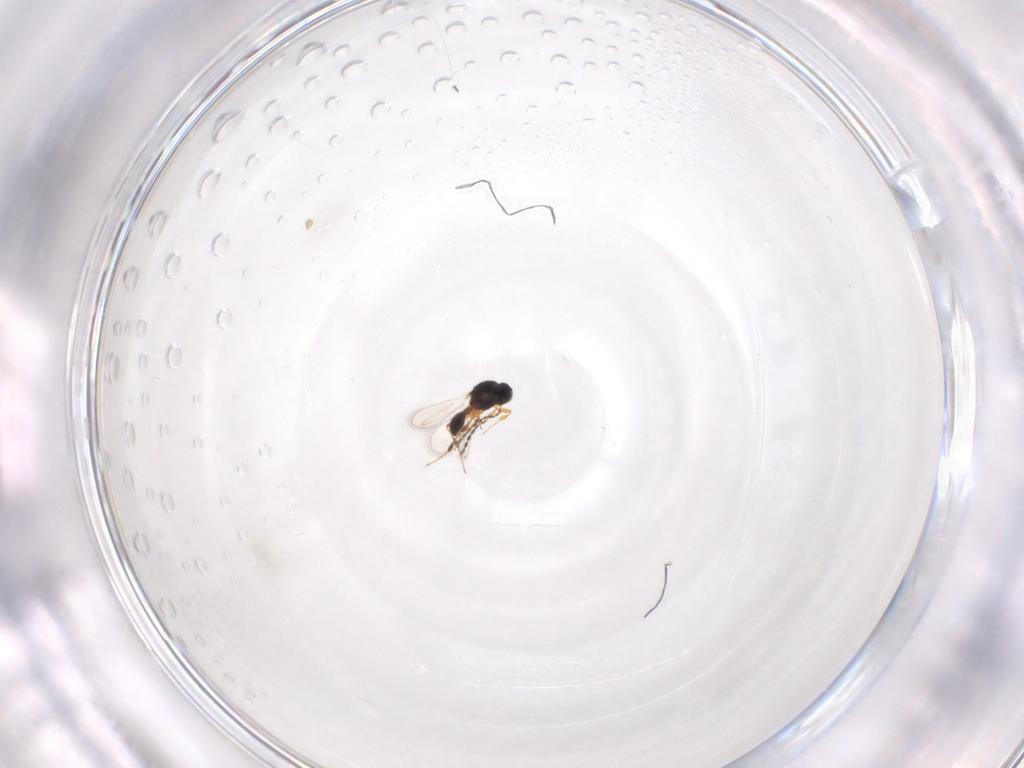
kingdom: Animalia
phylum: Arthropoda
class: Insecta
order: Hymenoptera
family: Platygastridae
